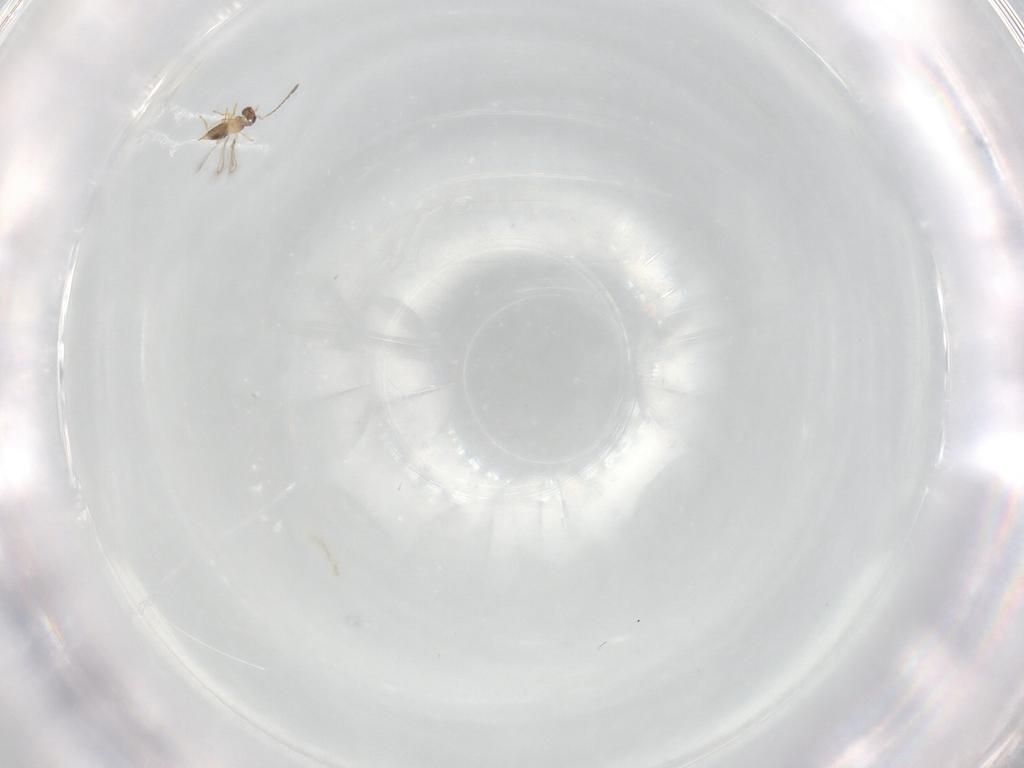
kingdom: Animalia
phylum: Arthropoda
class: Insecta
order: Hymenoptera
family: Mymaridae
